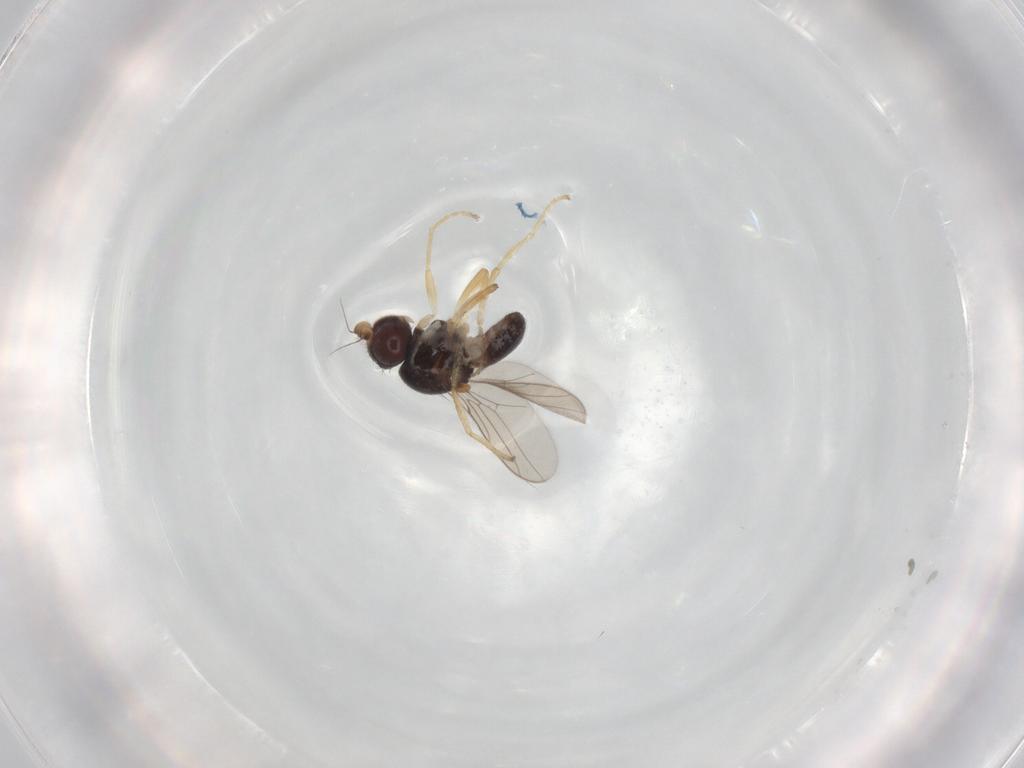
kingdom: Animalia
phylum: Arthropoda
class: Insecta
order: Diptera
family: Chloropidae
